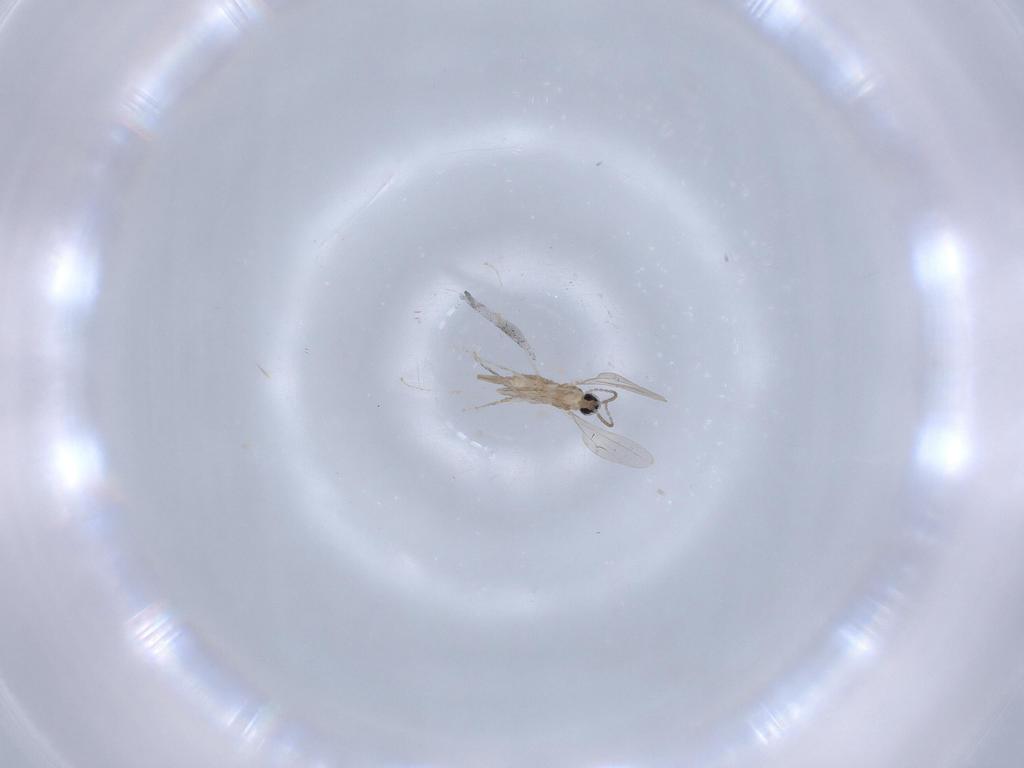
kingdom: Animalia
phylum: Arthropoda
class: Insecta
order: Diptera
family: Cecidomyiidae
